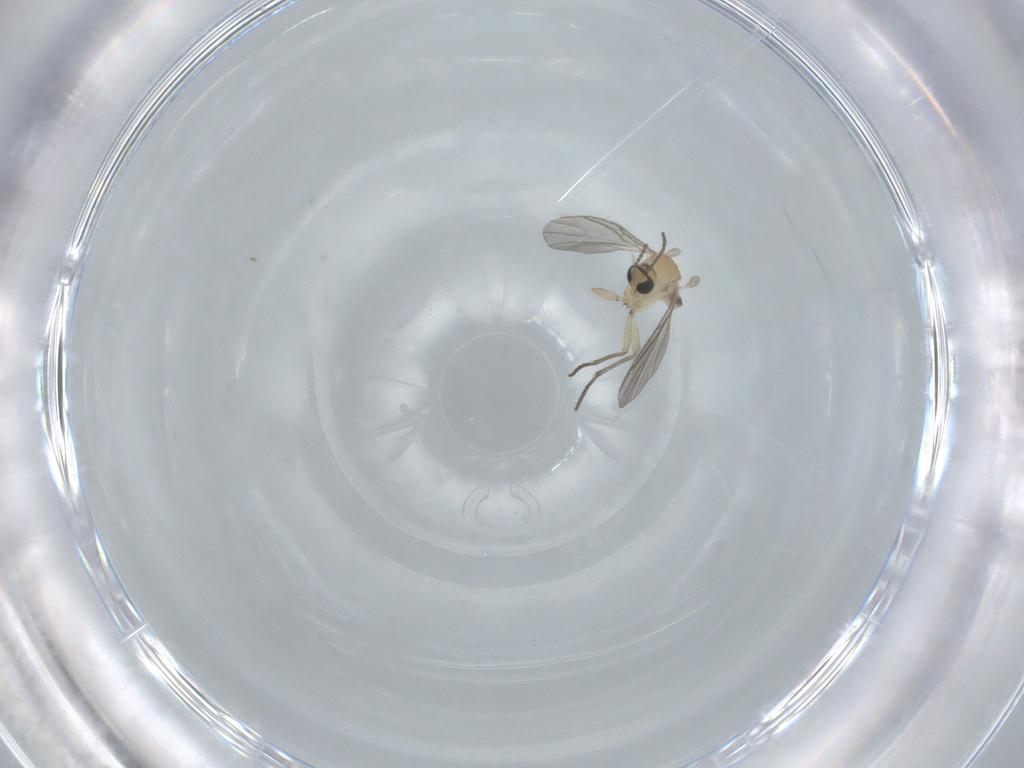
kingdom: Animalia
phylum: Arthropoda
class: Insecta
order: Diptera
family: Sciaridae
